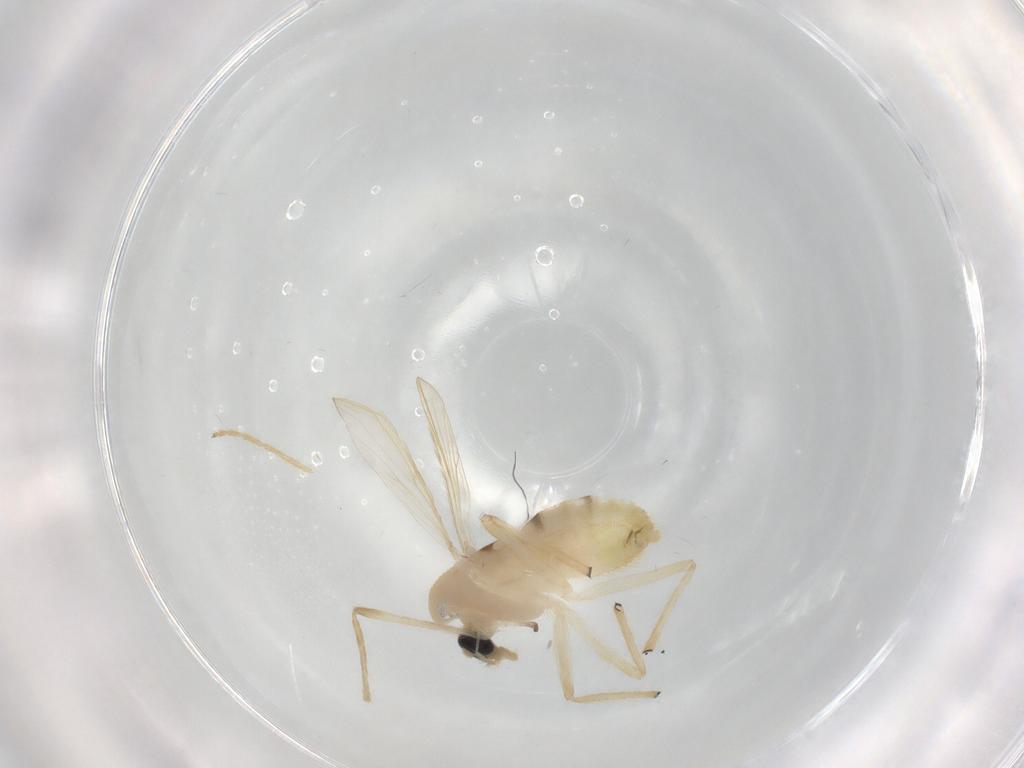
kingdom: Animalia
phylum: Arthropoda
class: Insecta
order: Diptera
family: Chironomidae
